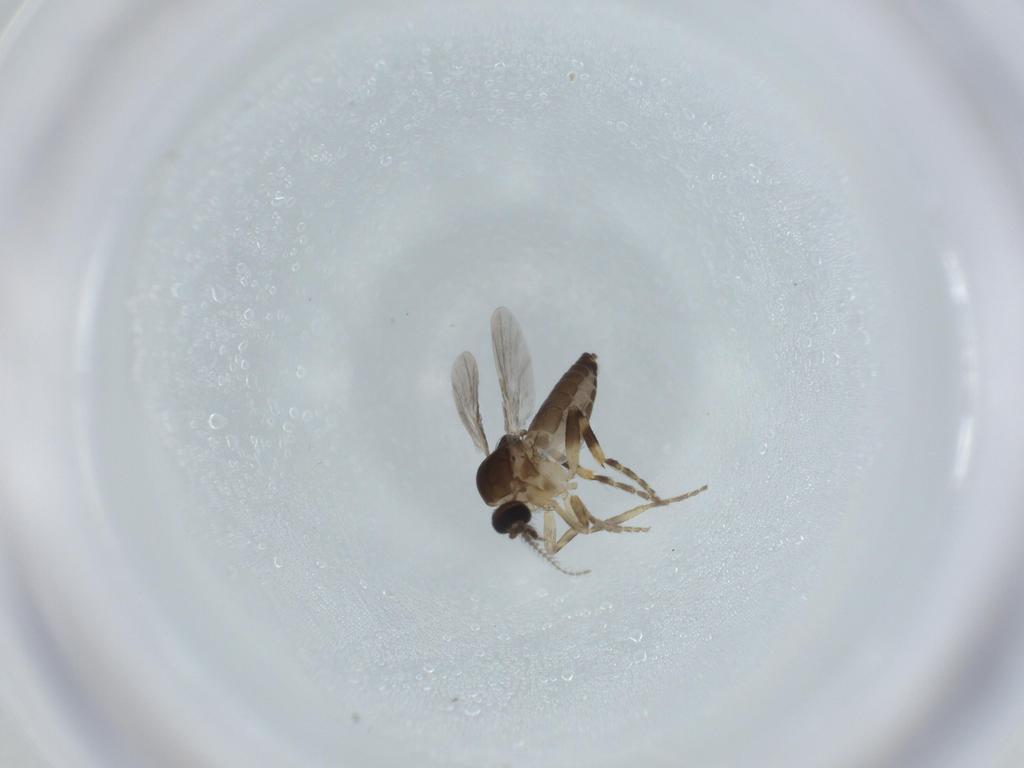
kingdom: Animalia
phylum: Arthropoda
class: Insecta
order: Diptera
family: Ceratopogonidae
